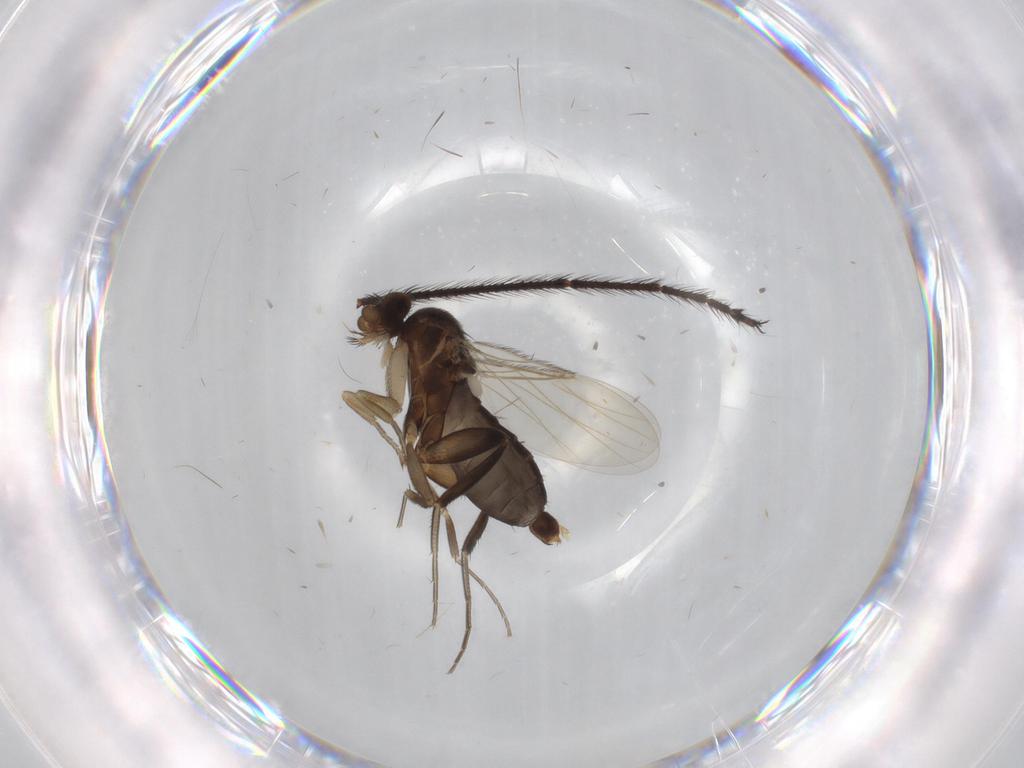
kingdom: Animalia
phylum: Arthropoda
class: Insecta
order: Diptera
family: Limoniidae
